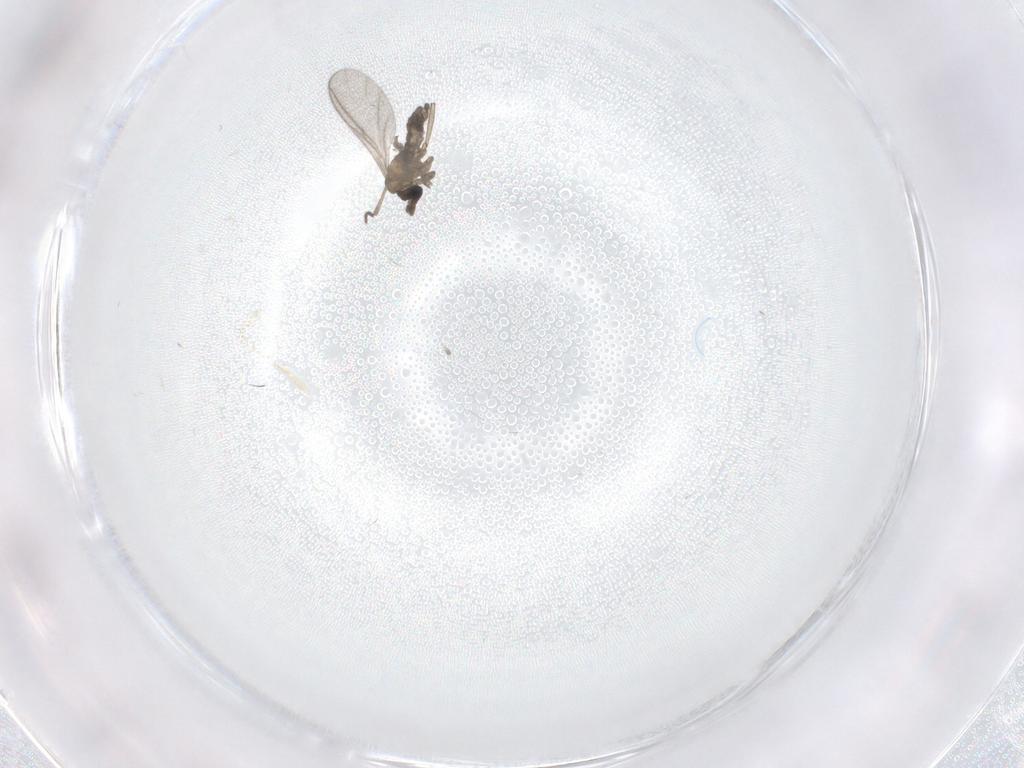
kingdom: Animalia
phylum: Arthropoda
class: Insecta
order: Diptera
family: Sciaridae
